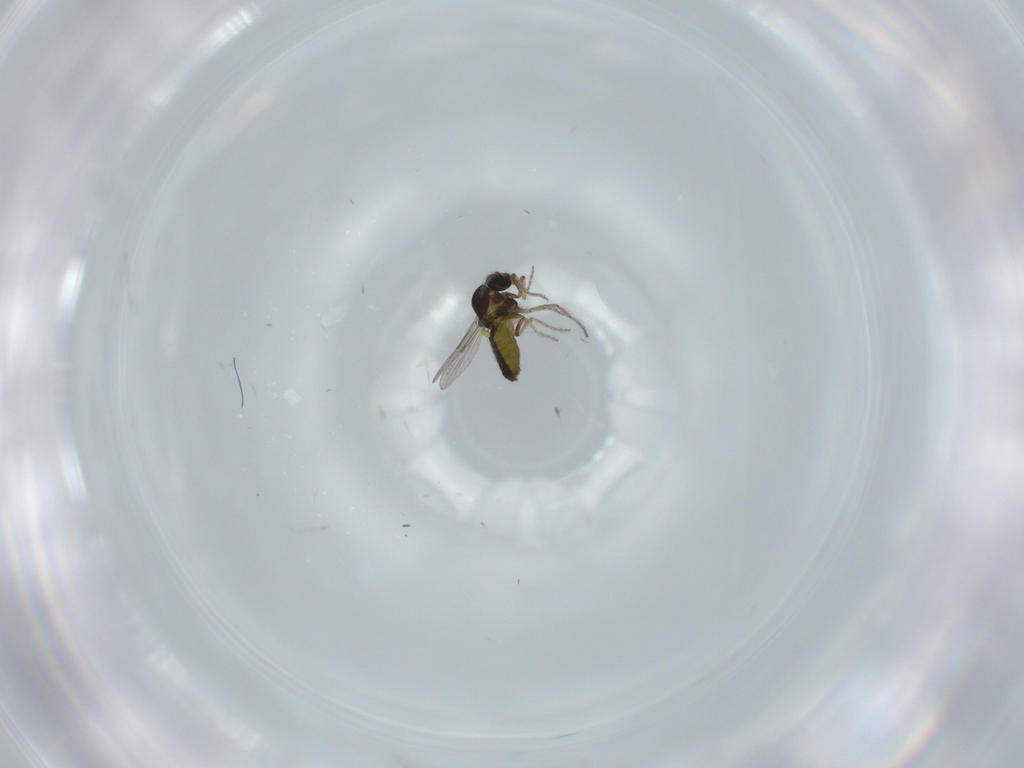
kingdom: Animalia
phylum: Arthropoda
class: Insecta
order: Diptera
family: Ceratopogonidae
